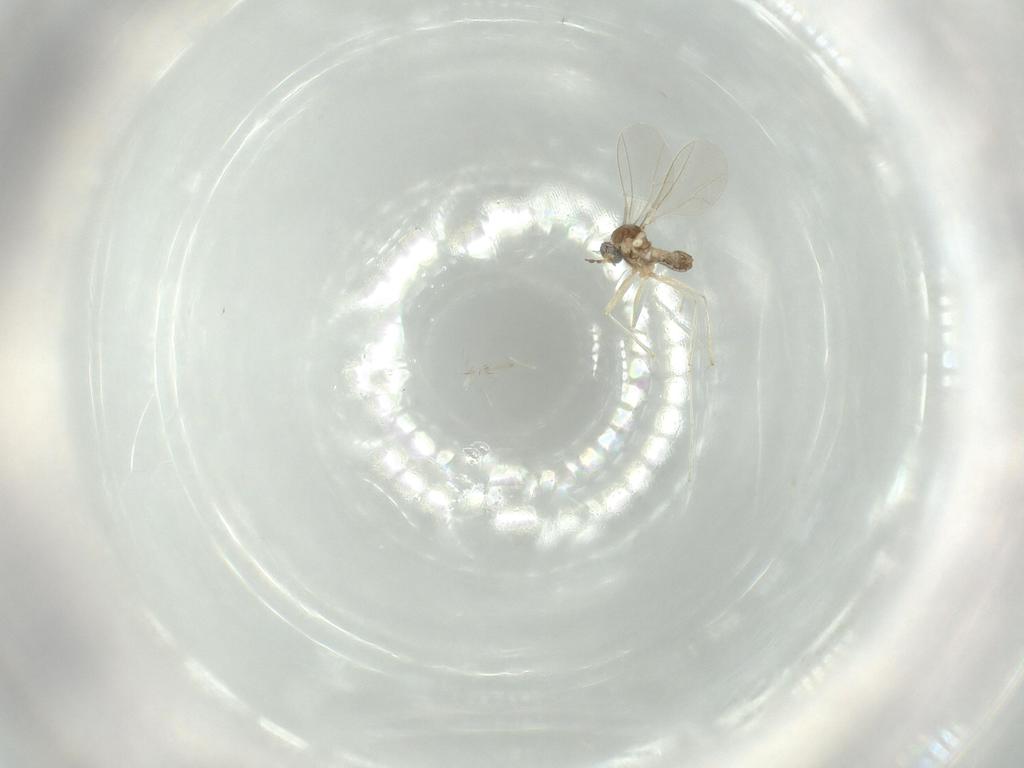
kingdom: Animalia
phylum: Arthropoda
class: Insecta
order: Diptera
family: Cecidomyiidae
